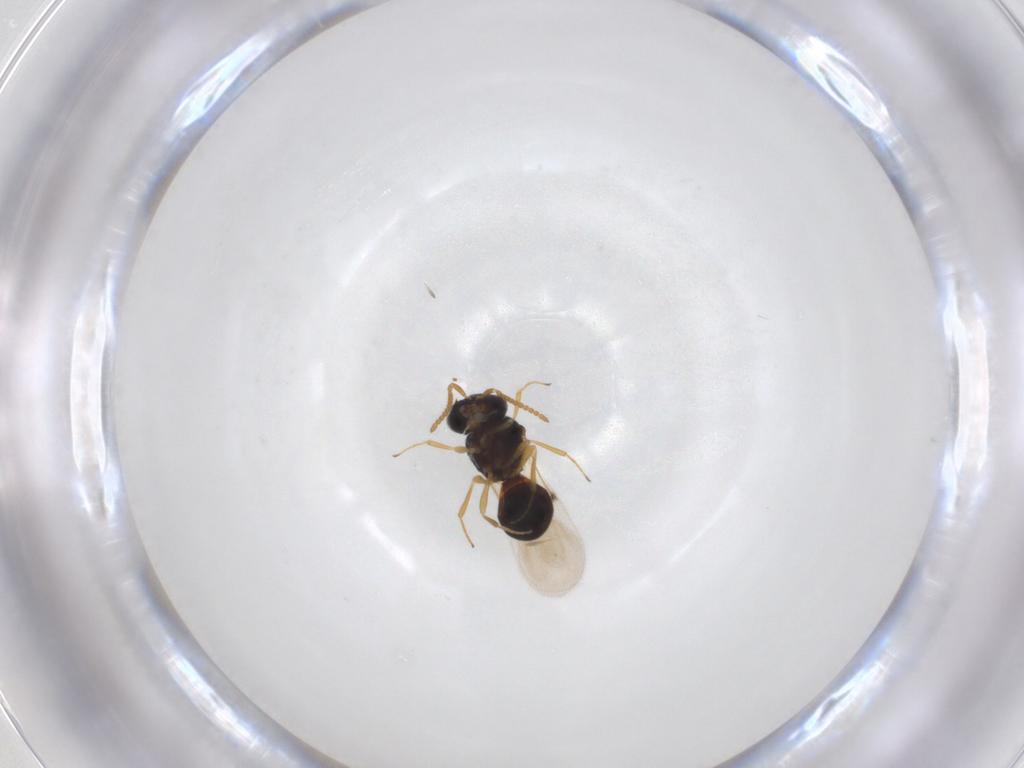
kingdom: Animalia
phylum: Arthropoda
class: Insecta
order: Hymenoptera
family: Scelionidae
